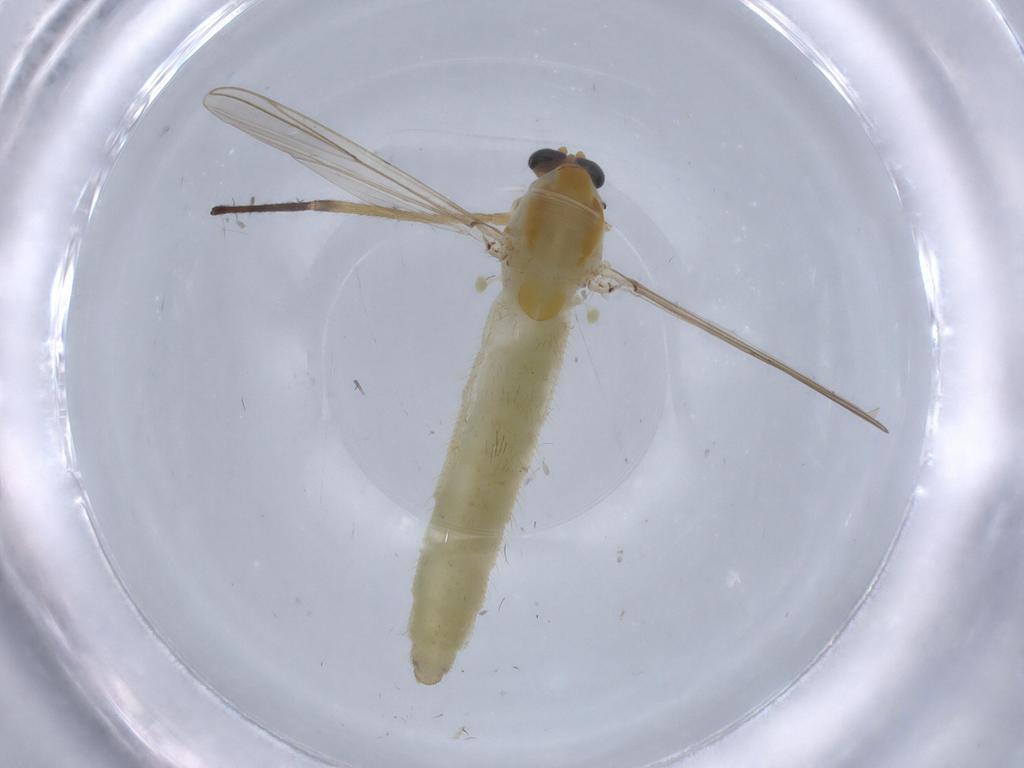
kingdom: Animalia
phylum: Arthropoda
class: Insecta
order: Diptera
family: Chironomidae
